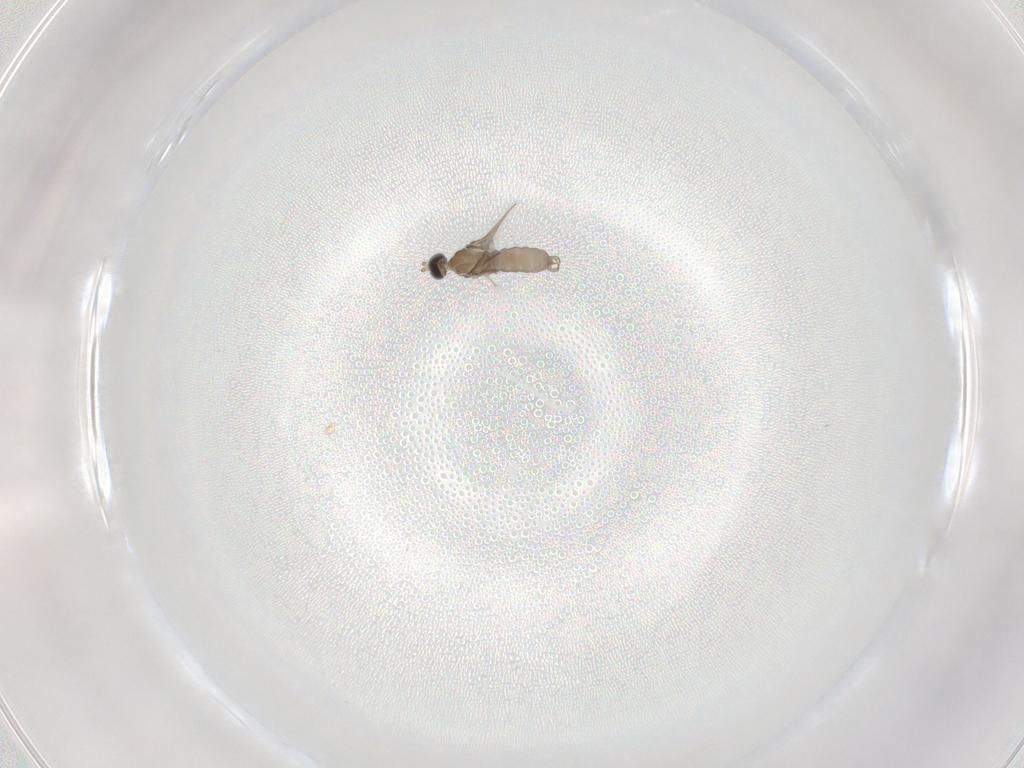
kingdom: Animalia
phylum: Arthropoda
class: Insecta
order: Diptera
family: Cecidomyiidae
